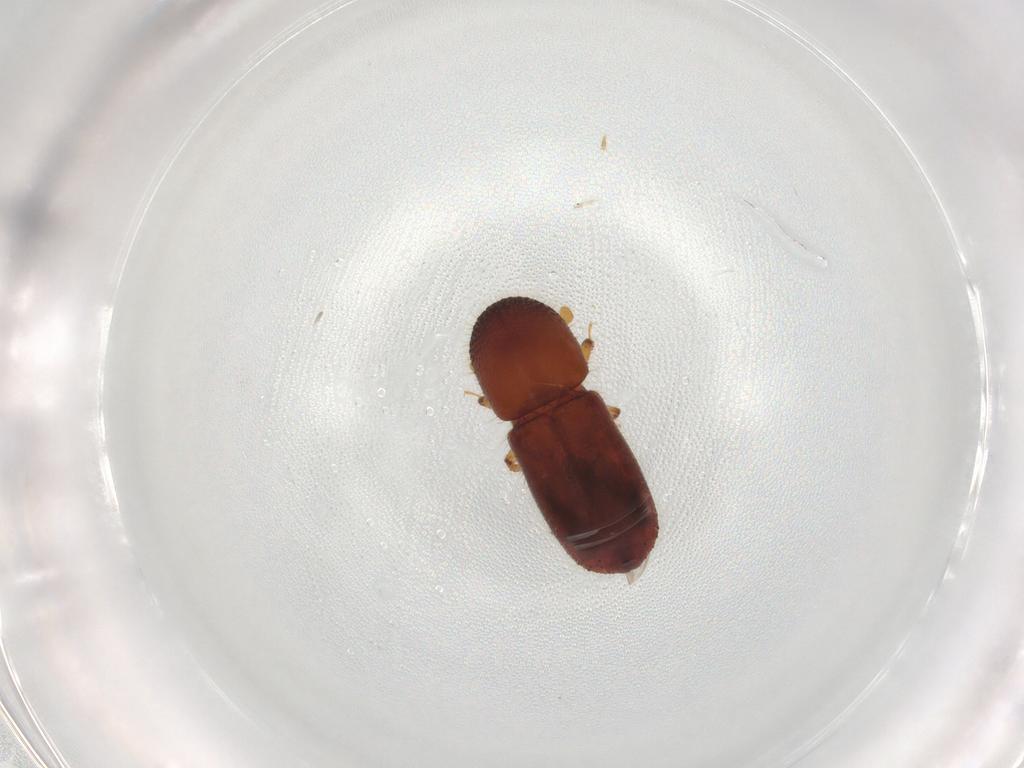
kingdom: Animalia
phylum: Arthropoda
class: Insecta
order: Coleoptera
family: Curculionidae
